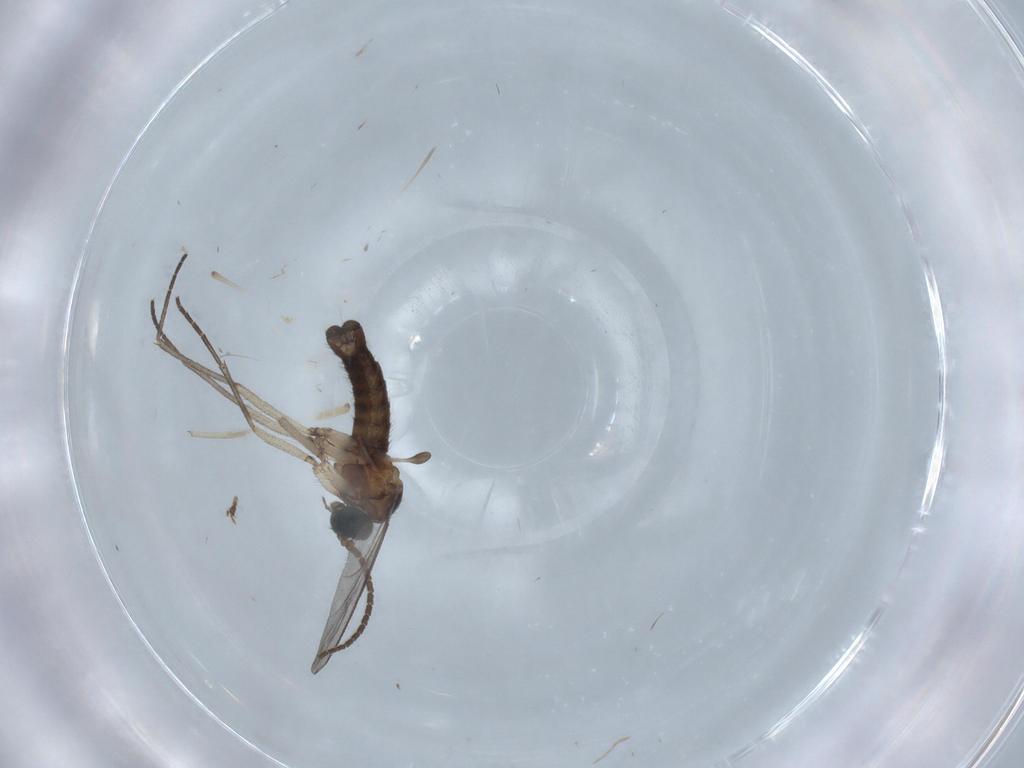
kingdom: Animalia
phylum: Arthropoda
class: Insecta
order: Diptera
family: Sciaridae
